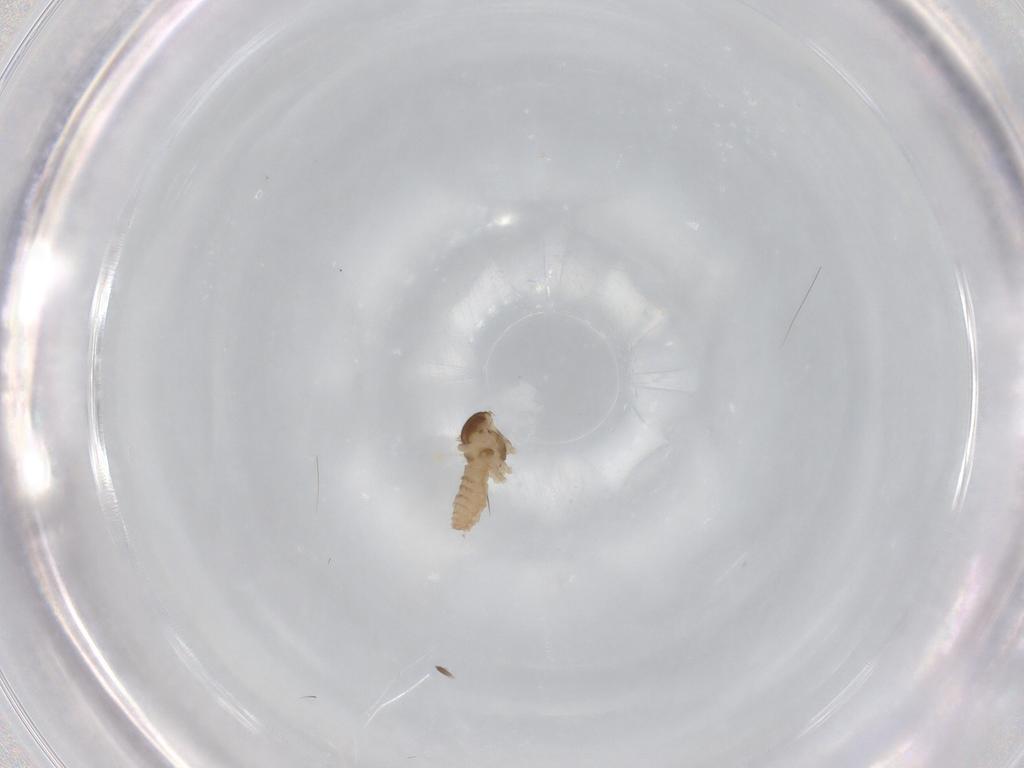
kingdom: Animalia
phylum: Arthropoda
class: Insecta
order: Diptera
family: Cecidomyiidae
